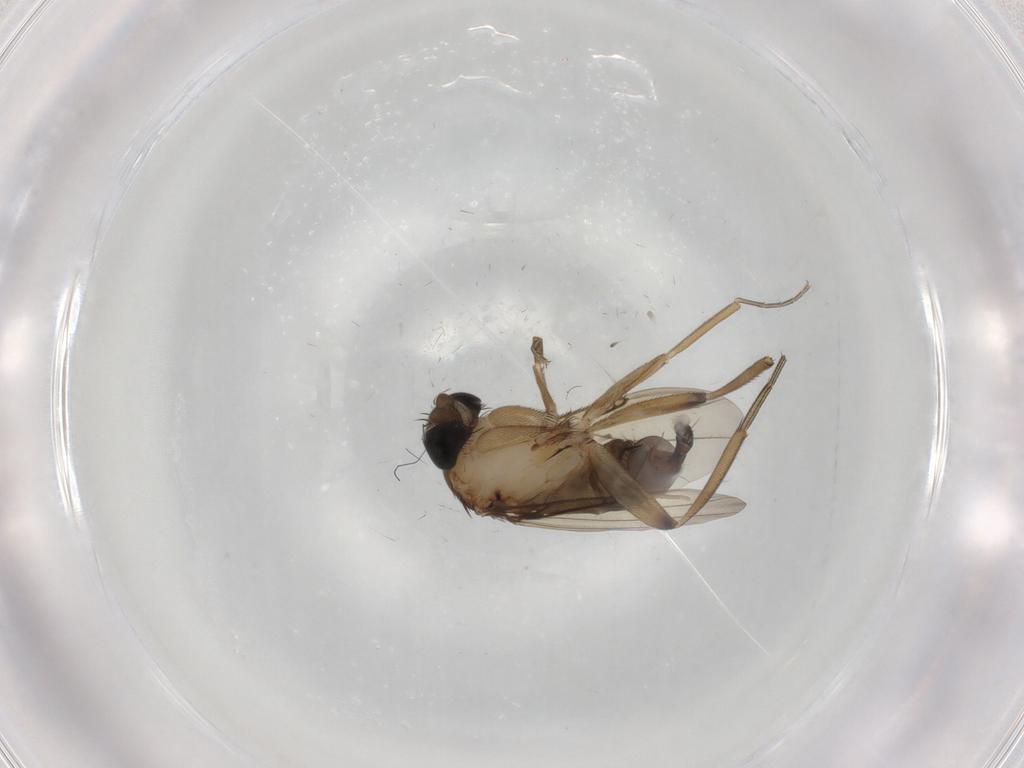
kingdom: Animalia
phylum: Arthropoda
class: Insecta
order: Diptera
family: Phoridae
